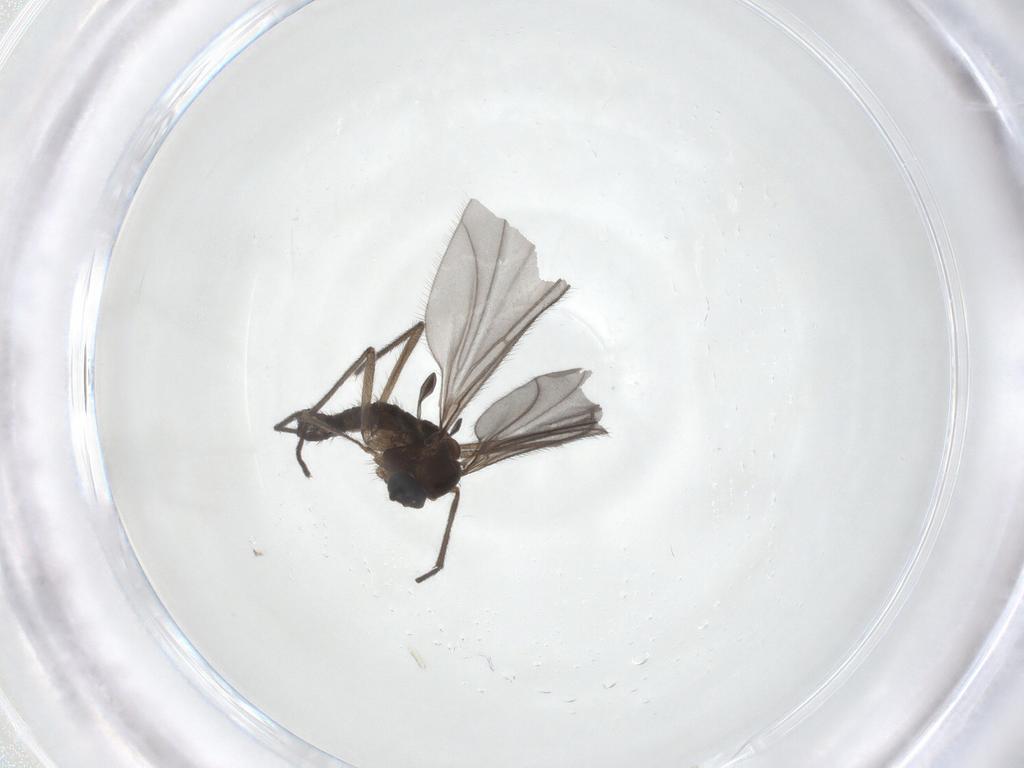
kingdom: Animalia
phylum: Arthropoda
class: Insecta
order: Diptera
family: Sciaridae
